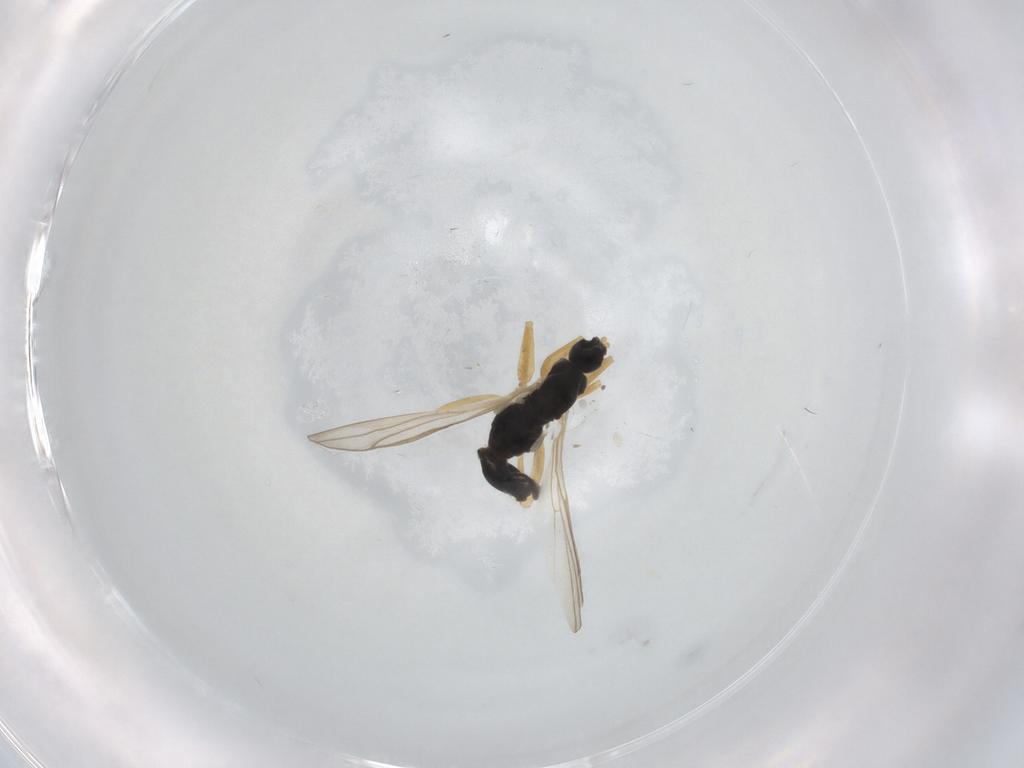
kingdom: Animalia
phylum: Arthropoda
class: Insecta
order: Diptera
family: Hybotidae
